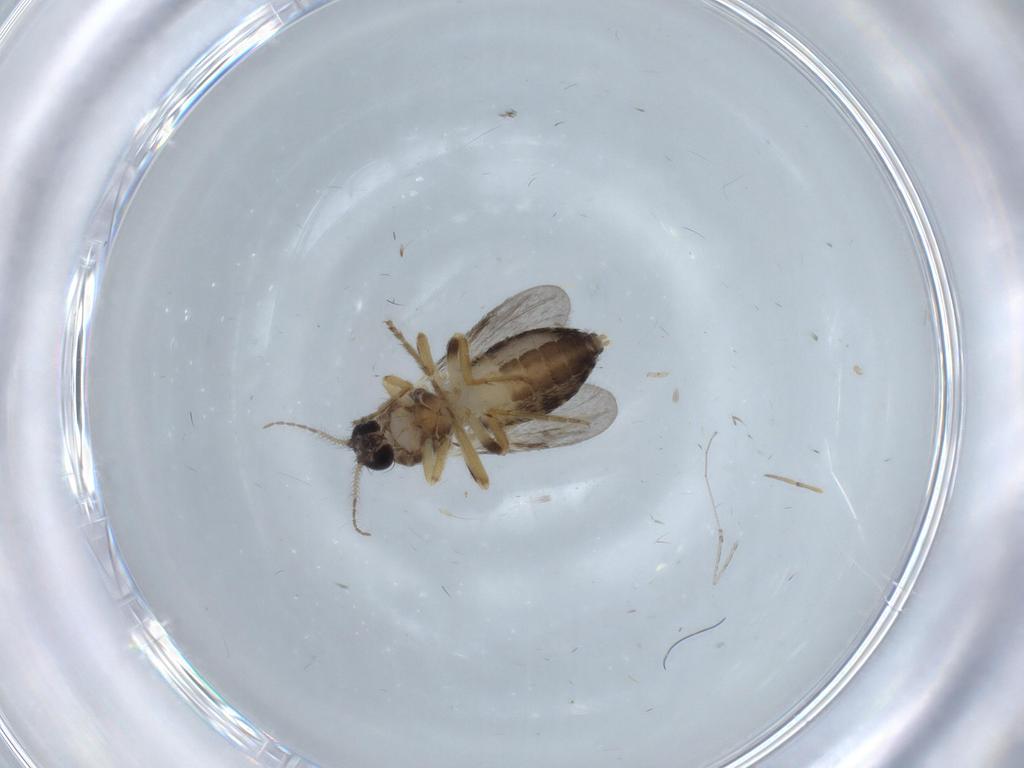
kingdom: Animalia
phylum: Arthropoda
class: Insecta
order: Diptera
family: Ceratopogonidae
